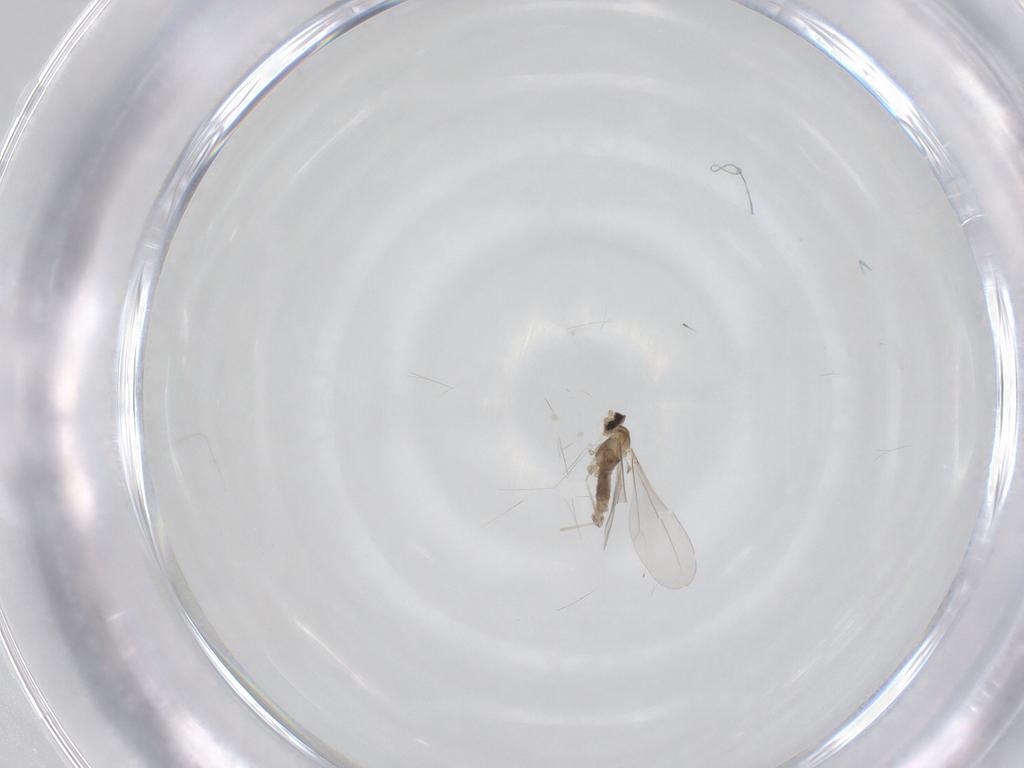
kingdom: Animalia
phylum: Arthropoda
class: Insecta
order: Diptera
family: Cecidomyiidae
